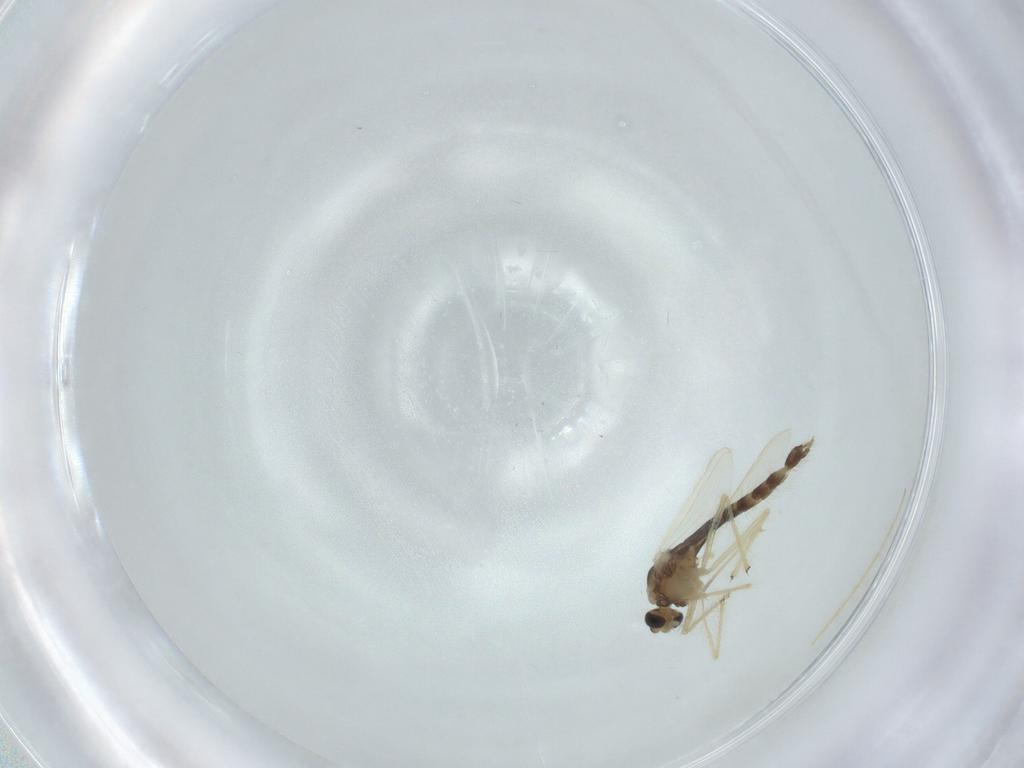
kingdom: Animalia
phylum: Arthropoda
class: Insecta
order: Diptera
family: Chironomidae
